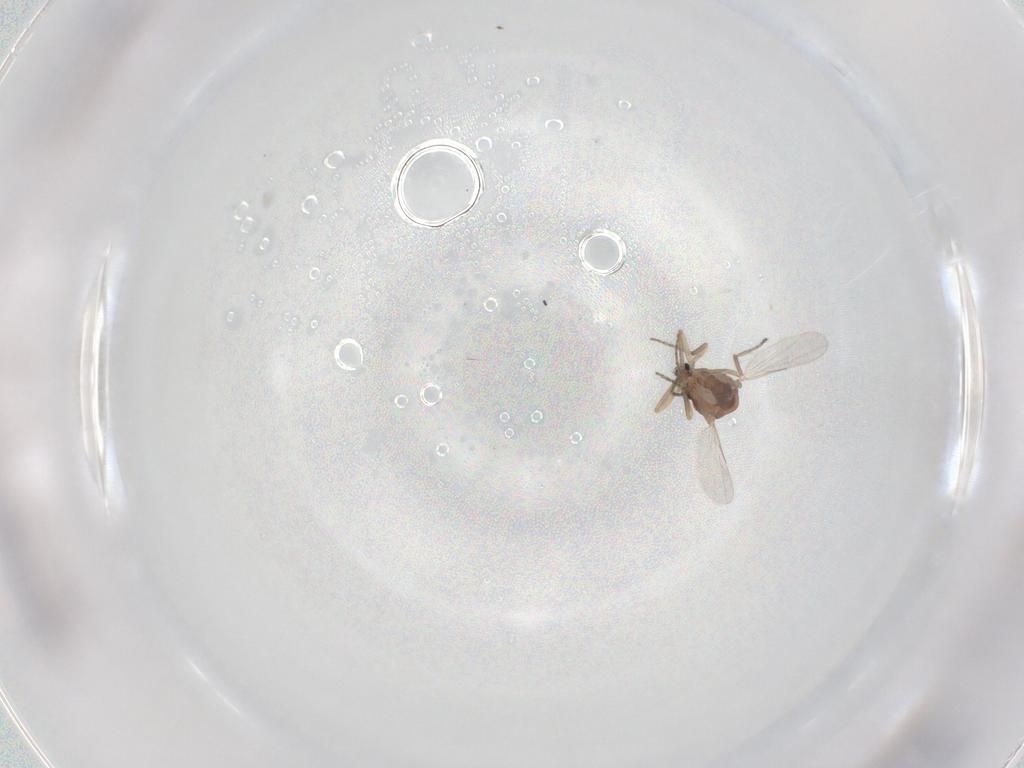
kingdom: Animalia
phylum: Arthropoda
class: Insecta
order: Diptera
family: Ceratopogonidae
